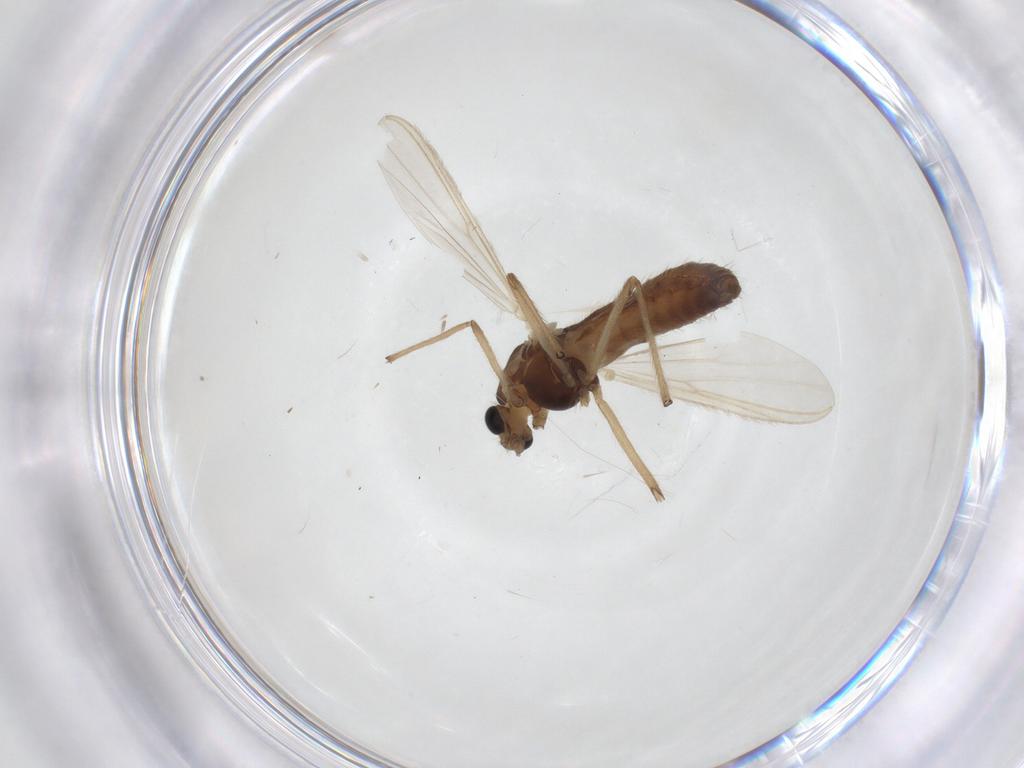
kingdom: Animalia
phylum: Arthropoda
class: Insecta
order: Diptera
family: Chironomidae
